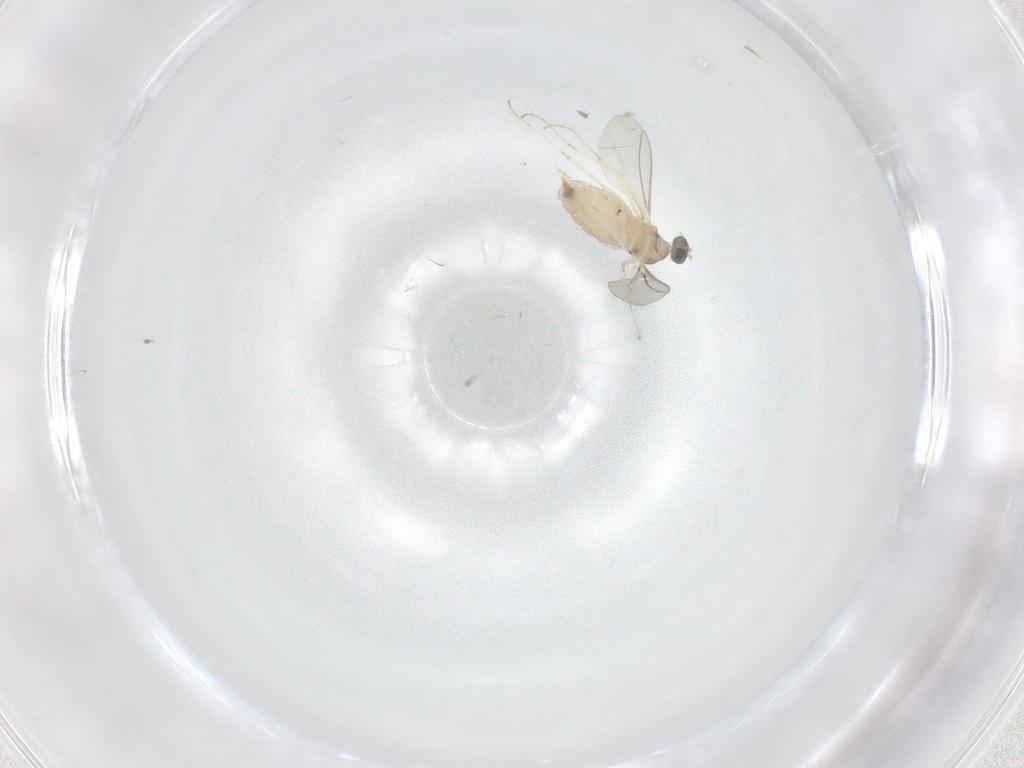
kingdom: Animalia
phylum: Arthropoda
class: Insecta
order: Diptera
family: Cecidomyiidae
